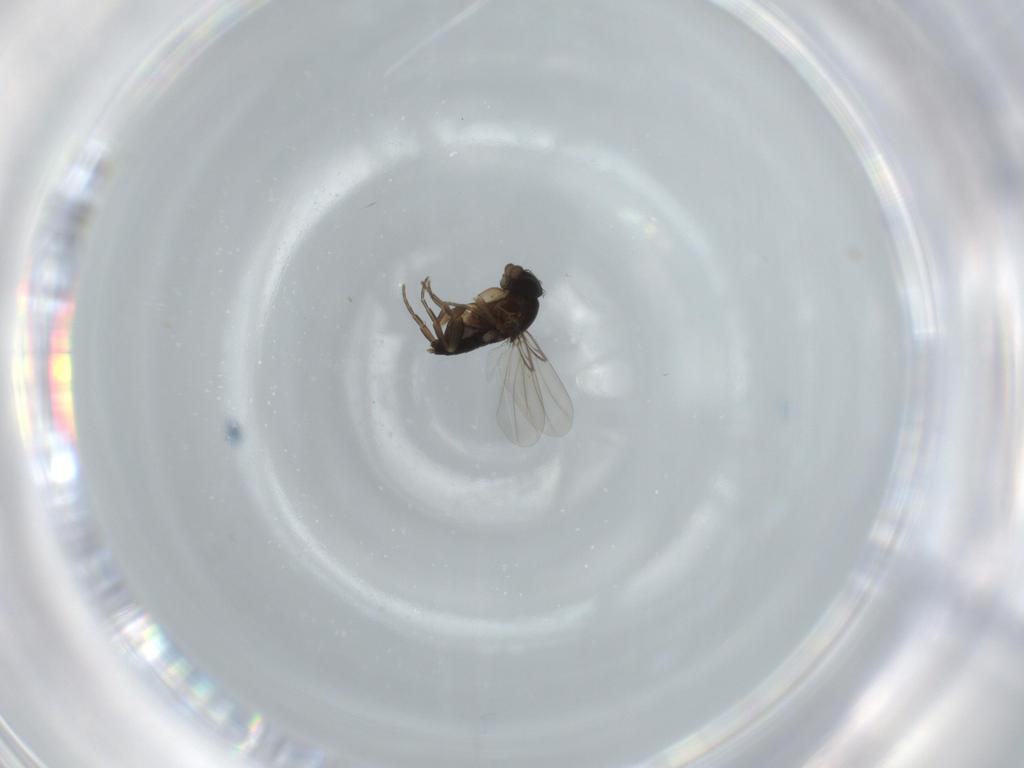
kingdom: Animalia
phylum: Arthropoda
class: Insecta
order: Diptera
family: Phoridae
